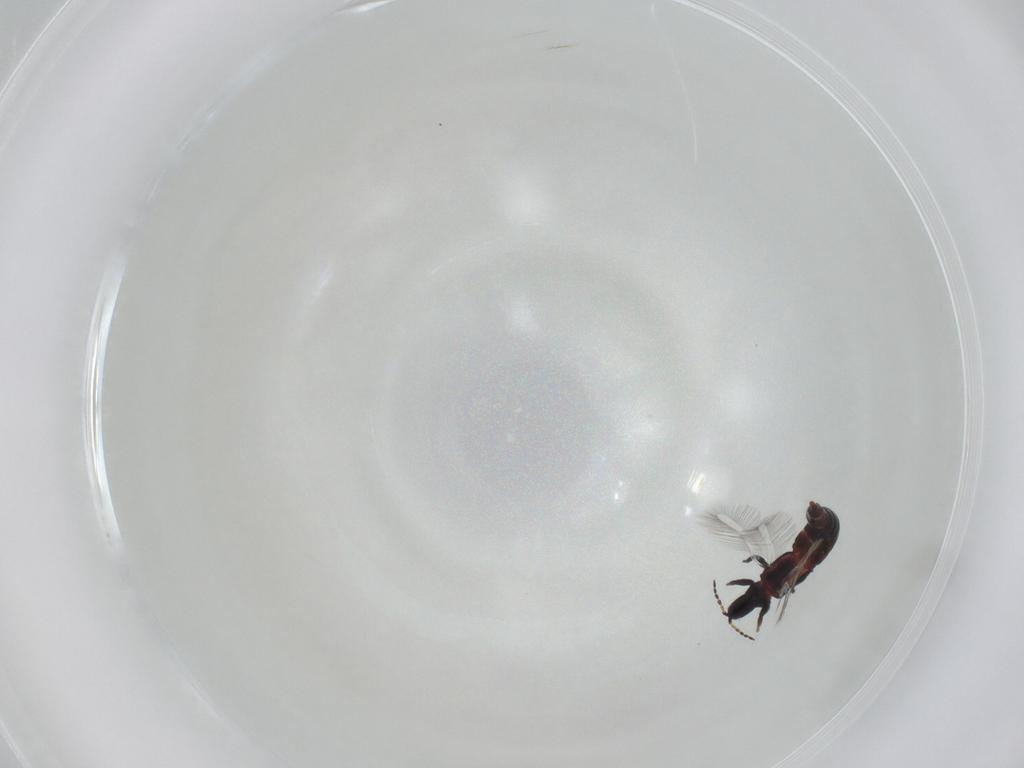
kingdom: Animalia
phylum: Arthropoda
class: Insecta
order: Thysanoptera
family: Phlaeothripidae
